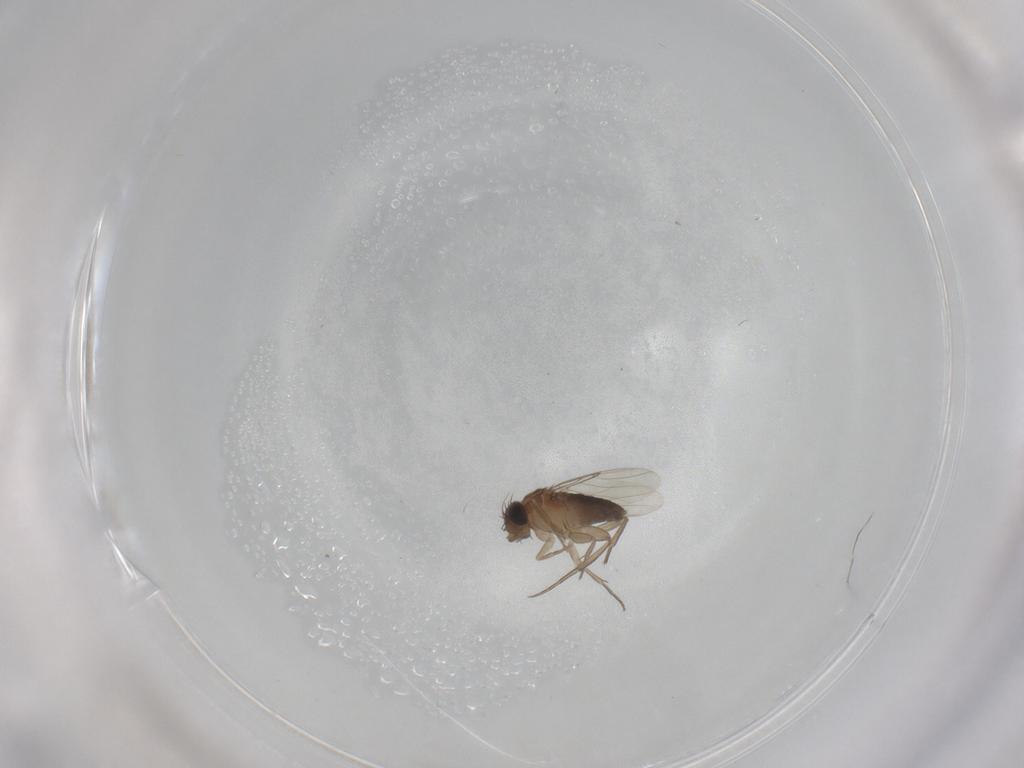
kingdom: Animalia
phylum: Arthropoda
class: Insecta
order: Diptera
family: Phoridae
